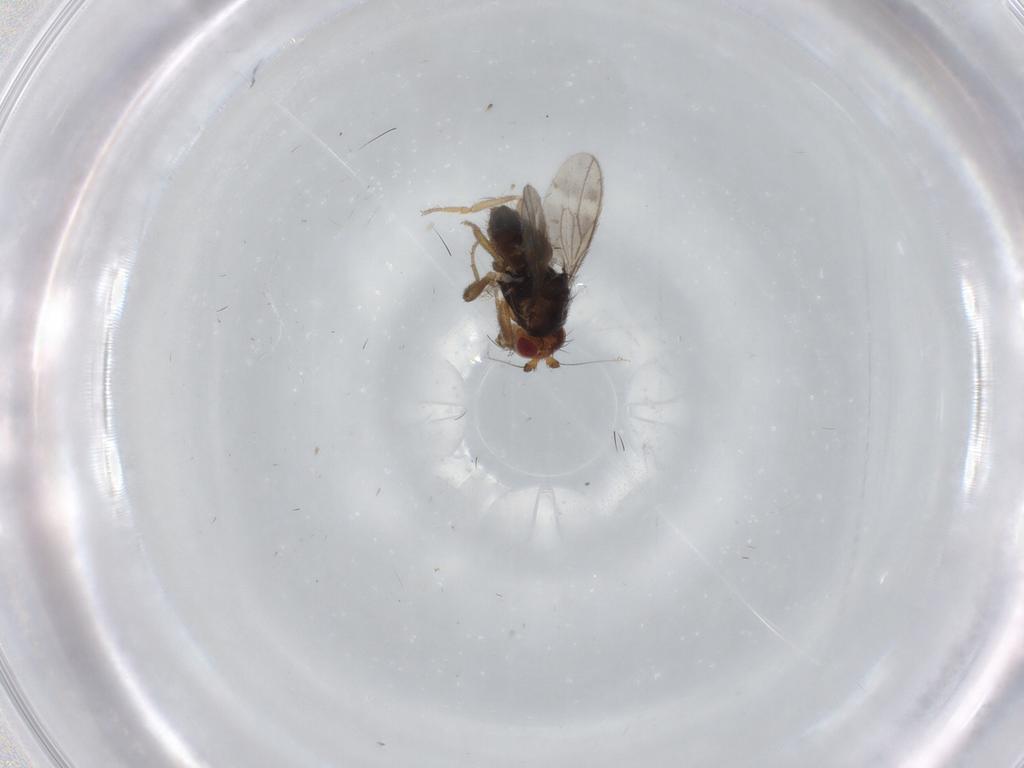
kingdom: Animalia
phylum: Arthropoda
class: Insecta
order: Diptera
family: Sphaeroceridae
